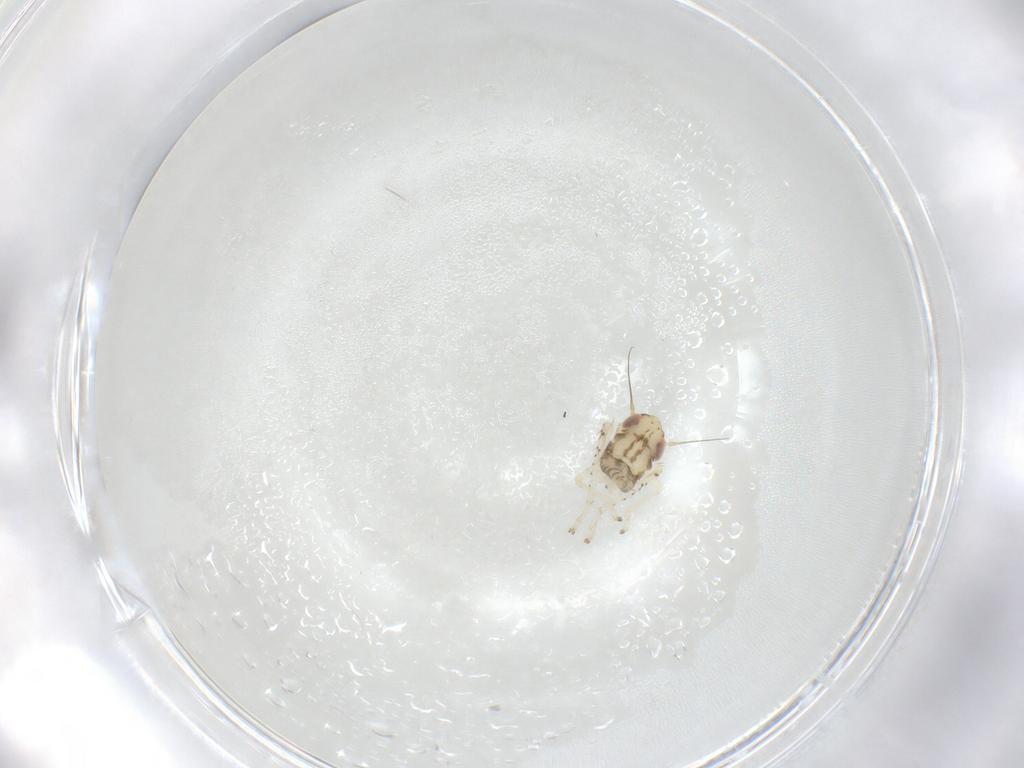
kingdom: Animalia
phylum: Arthropoda
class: Insecta
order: Hemiptera
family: Cicadellidae
